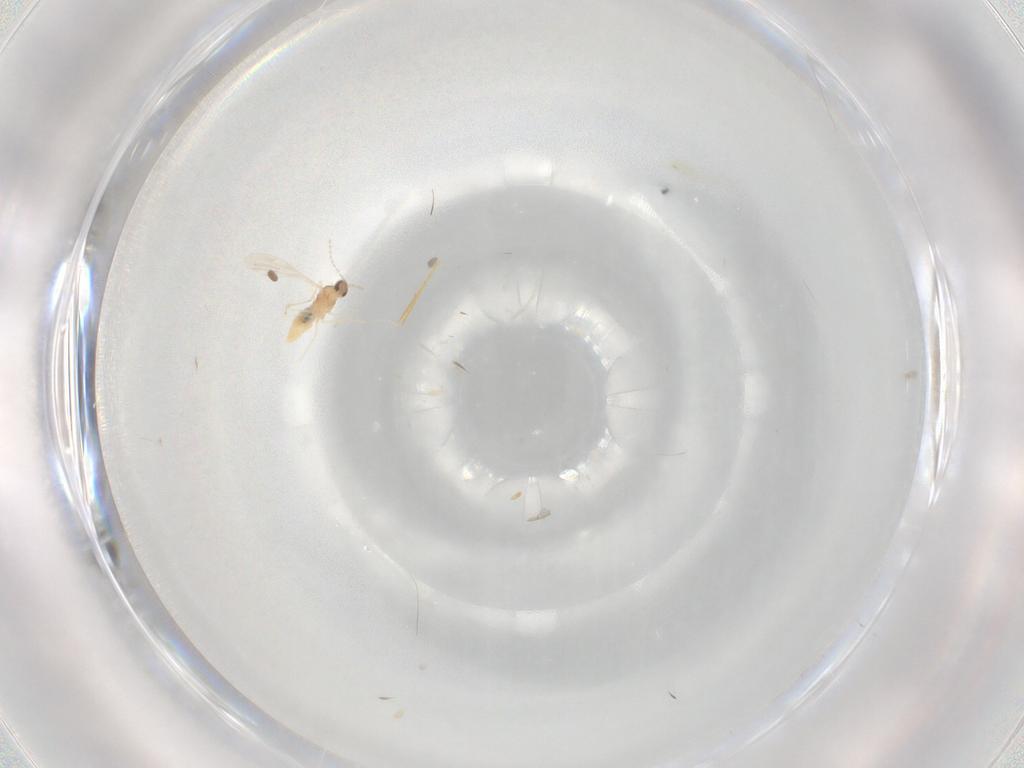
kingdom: Animalia
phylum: Arthropoda
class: Insecta
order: Diptera
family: Cecidomyiidae
